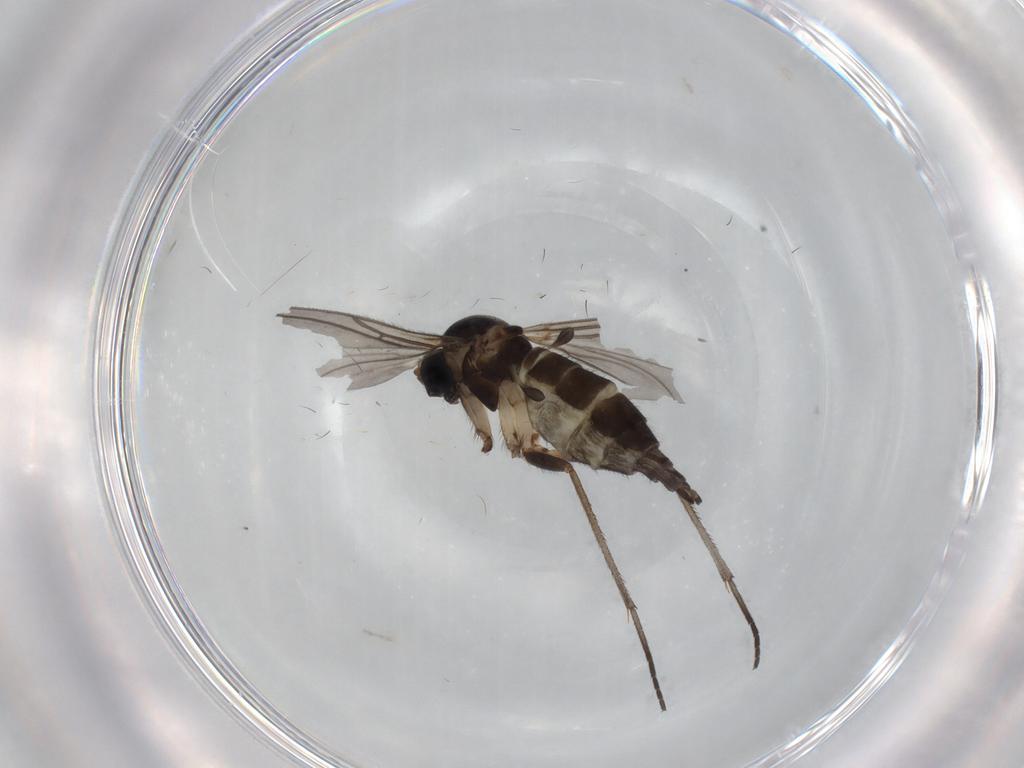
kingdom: Animalia
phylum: Arthropoda
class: Insecta
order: Diptera
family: Sciaridae
